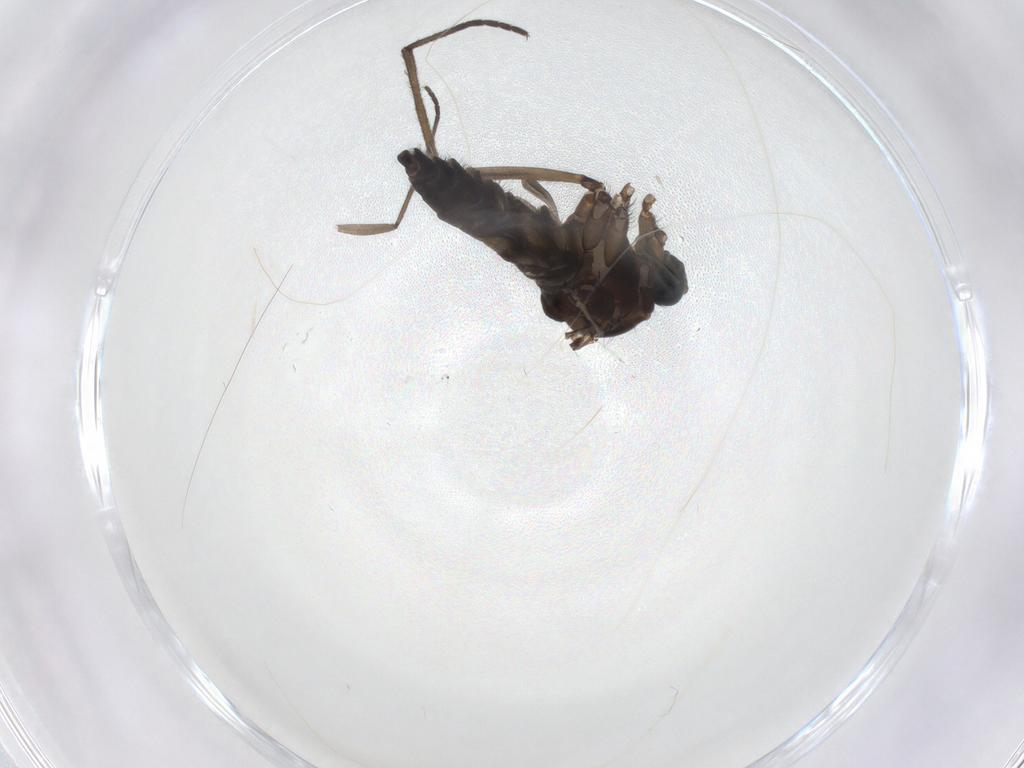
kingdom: Animalia
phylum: Arthropoda
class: Insecta
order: Diptera
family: Sciaridae
